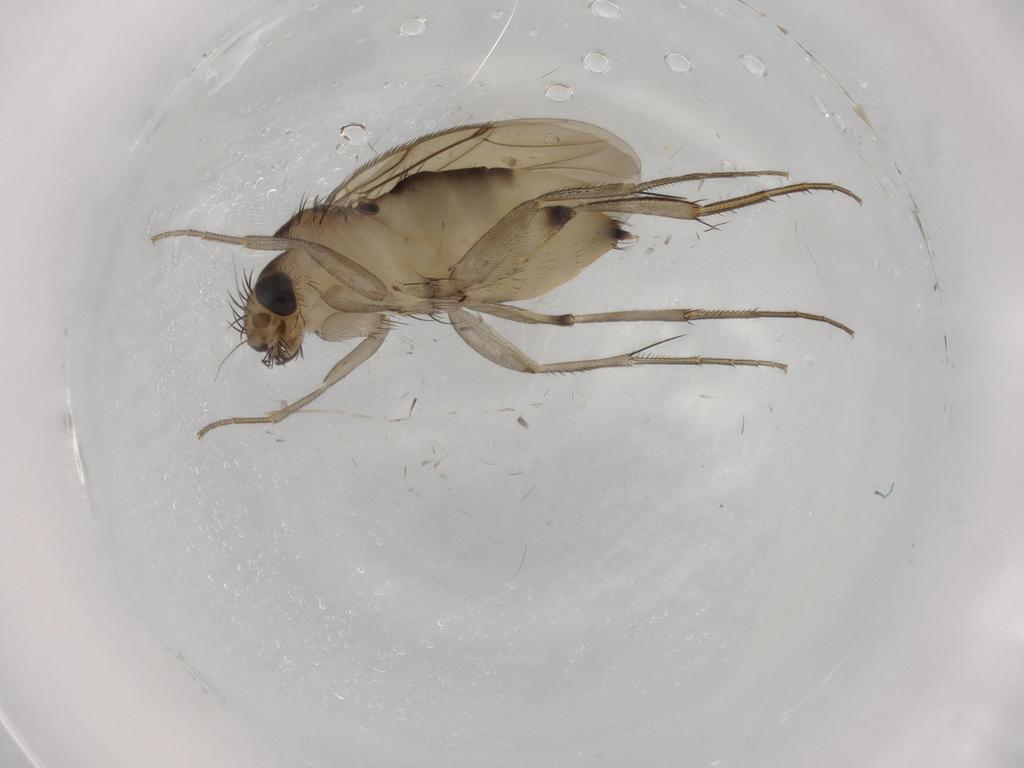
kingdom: Animalia
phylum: Arthropoda
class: Insecta
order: Diptera
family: Cecidomyiidae
